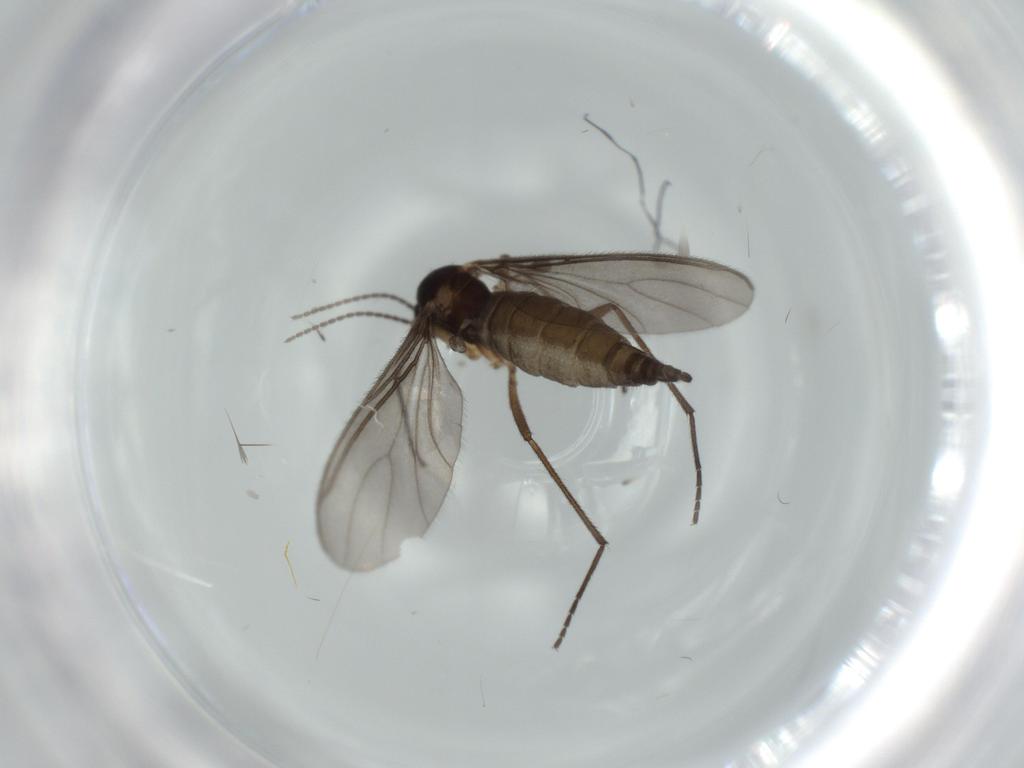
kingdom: Animalia
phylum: Arthropoda
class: Insecta
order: Diptera
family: Sciaridae
